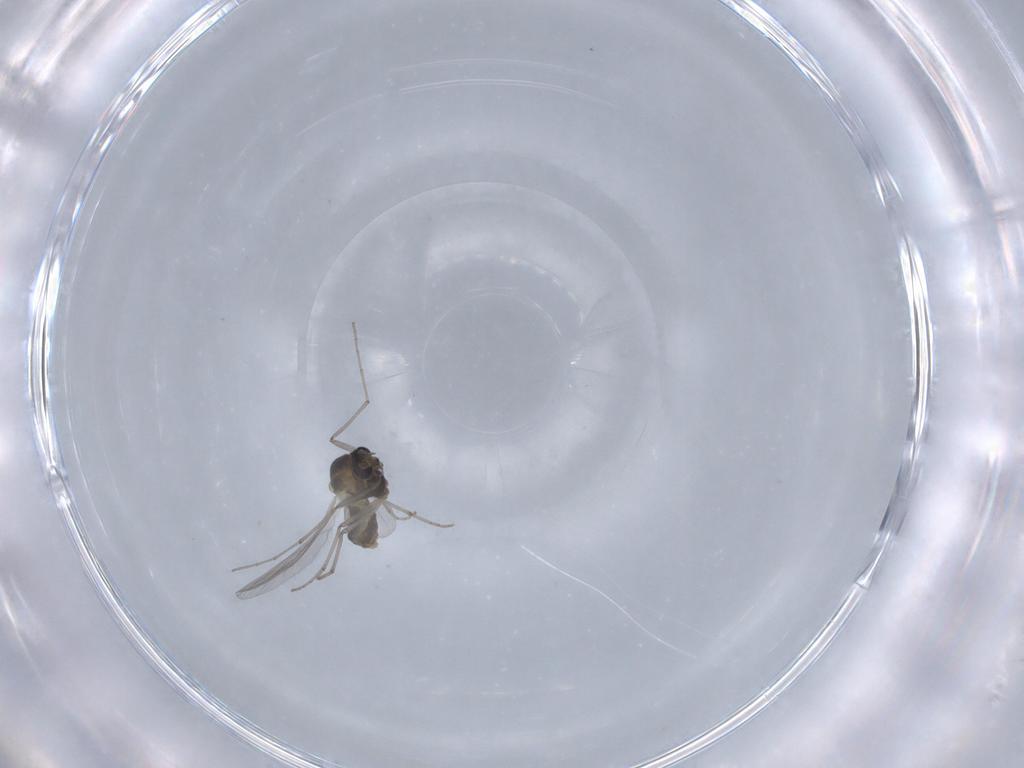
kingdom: Animalia
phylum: Arthropoda
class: Insecta
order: Diptera
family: Chironomidae
